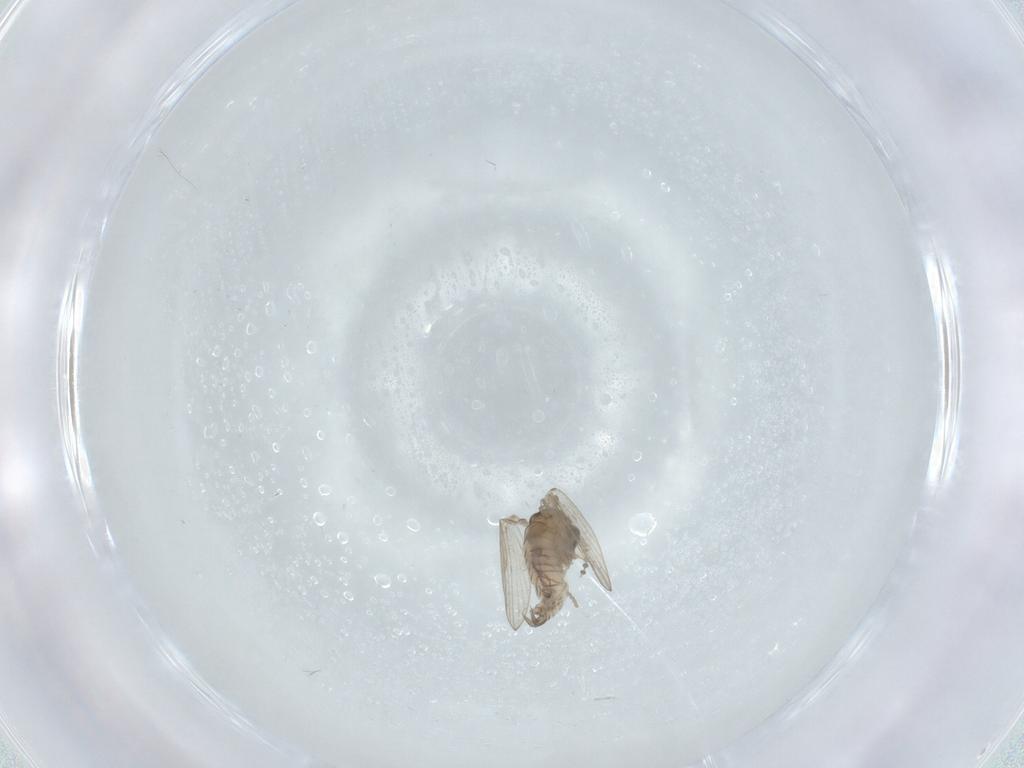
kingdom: Animalia
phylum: Arthropoda
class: Insecta
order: Diptera
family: Psychodidae
